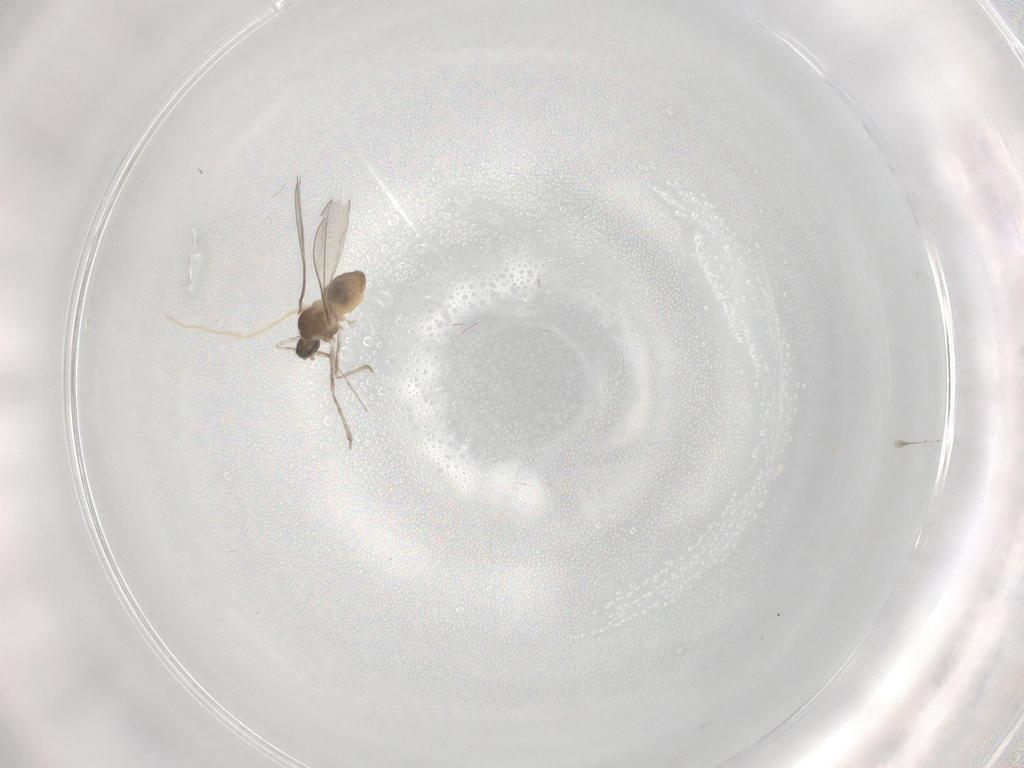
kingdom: Animalia
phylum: Arthropoda
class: Insecta
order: Diptera
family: Cecidomyiidae
